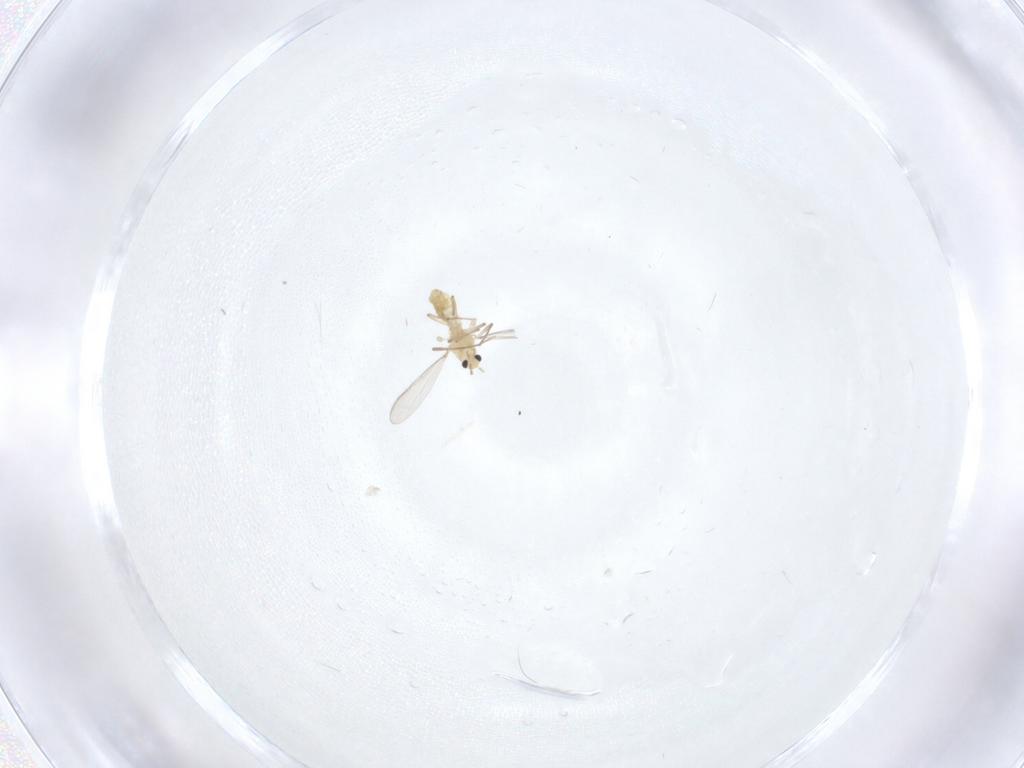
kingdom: Animalia
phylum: Arthropoda
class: Insecta
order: Diptera
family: Chironomidae
